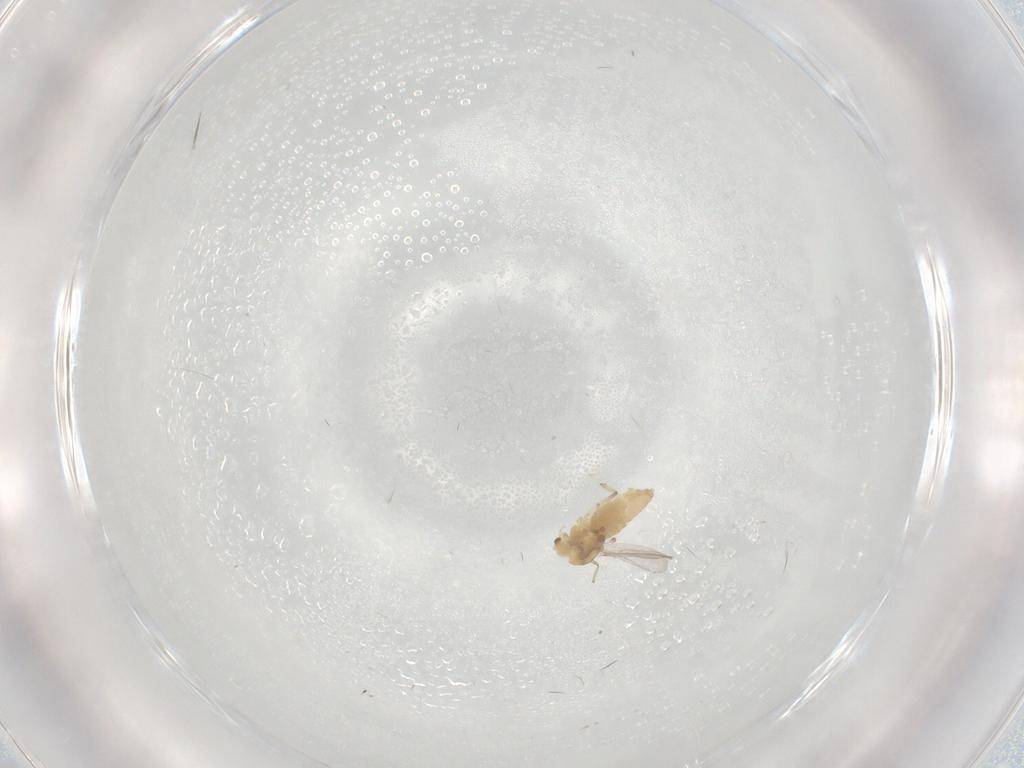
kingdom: Animalia
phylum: Arthropoda
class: Insecta
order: Diptera
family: Chironomidae
